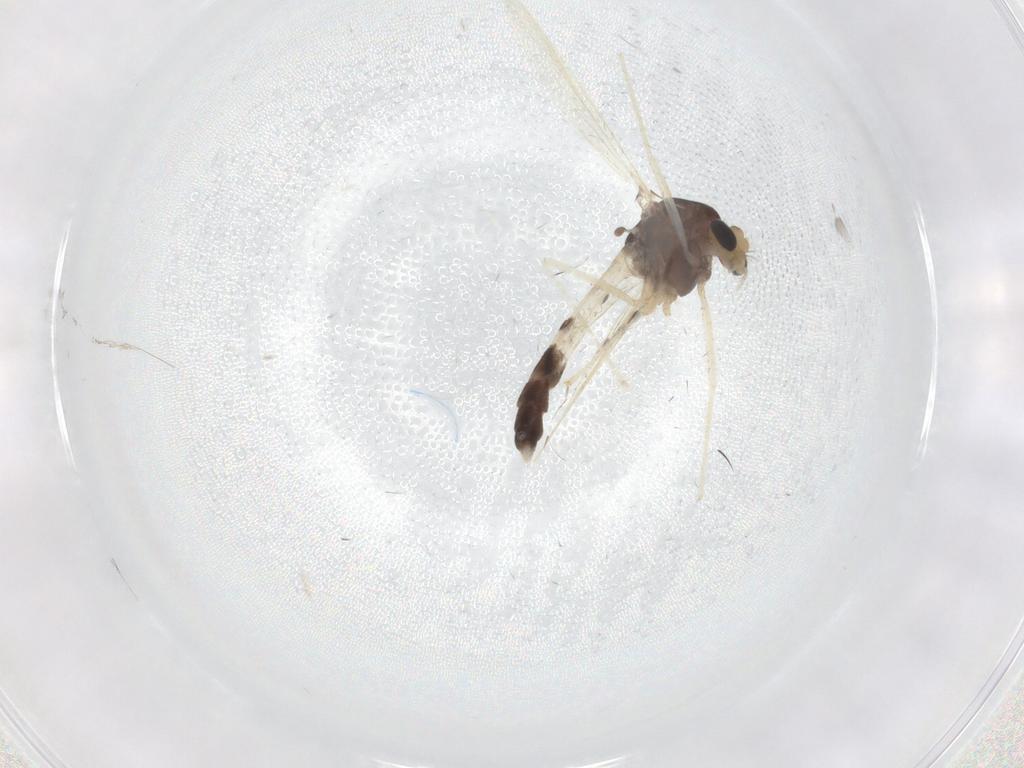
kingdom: Animalia
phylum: Arthropoda
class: Insecta
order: Diptera
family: Chironomidae
